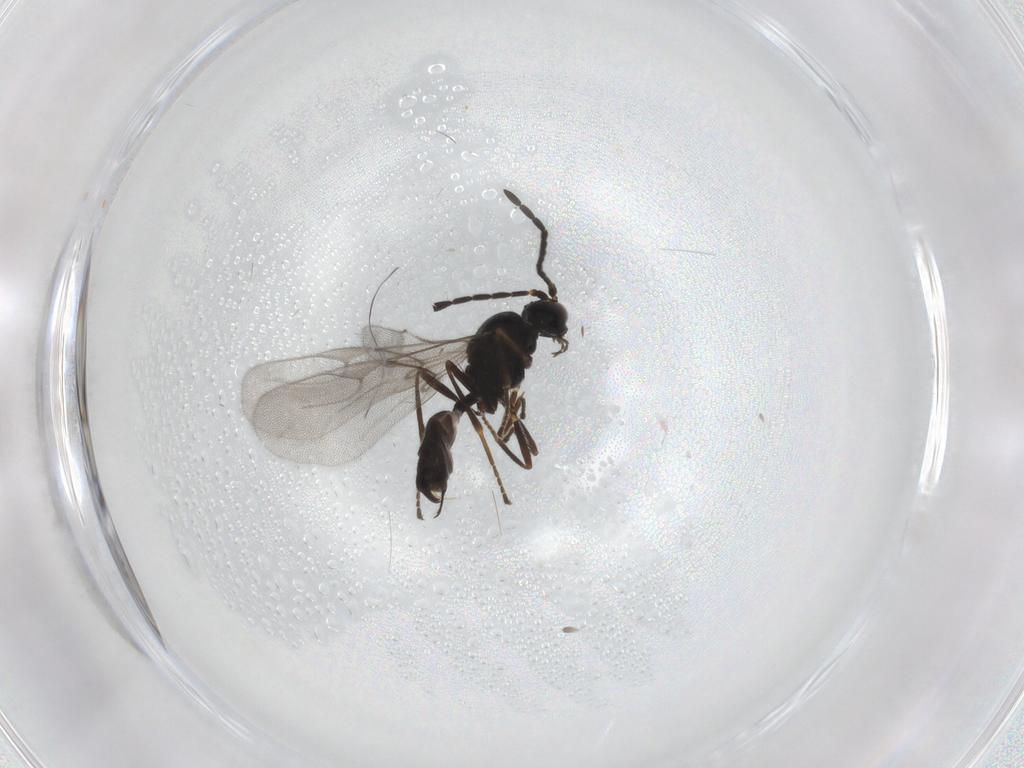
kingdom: Animalia
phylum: Arthropoda
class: Insecta
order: Hymenoptera
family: Braconidae
